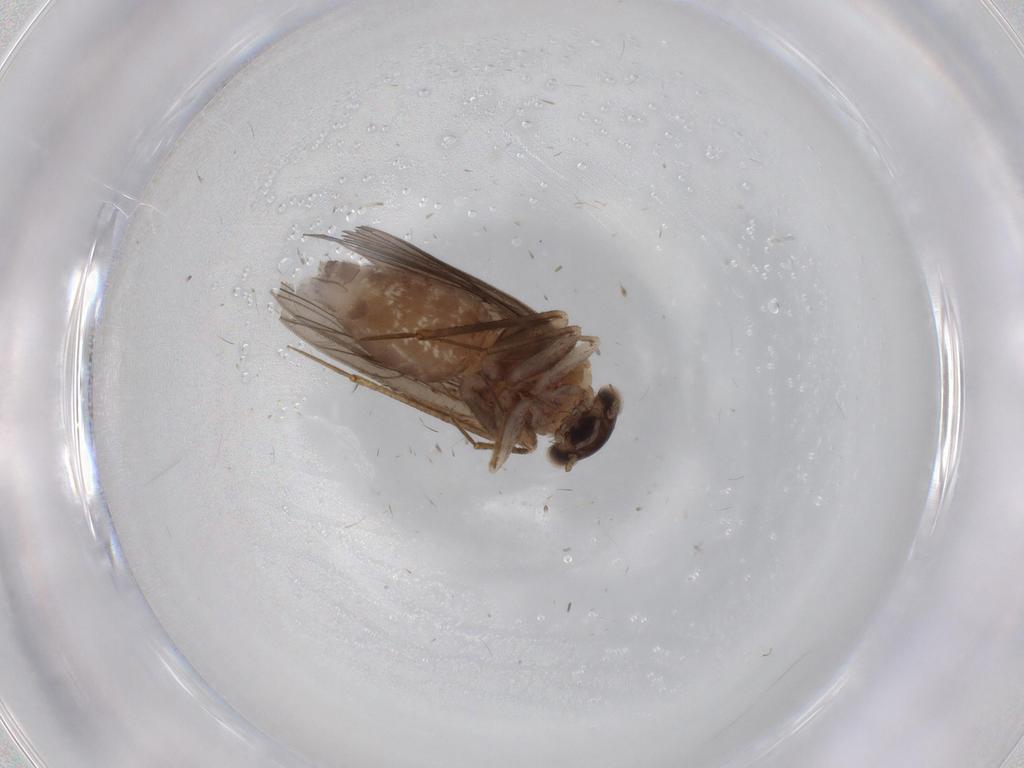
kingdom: Animalia
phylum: Arthropoda
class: Insecta
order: Psocodea
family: Lepidopsocidae
